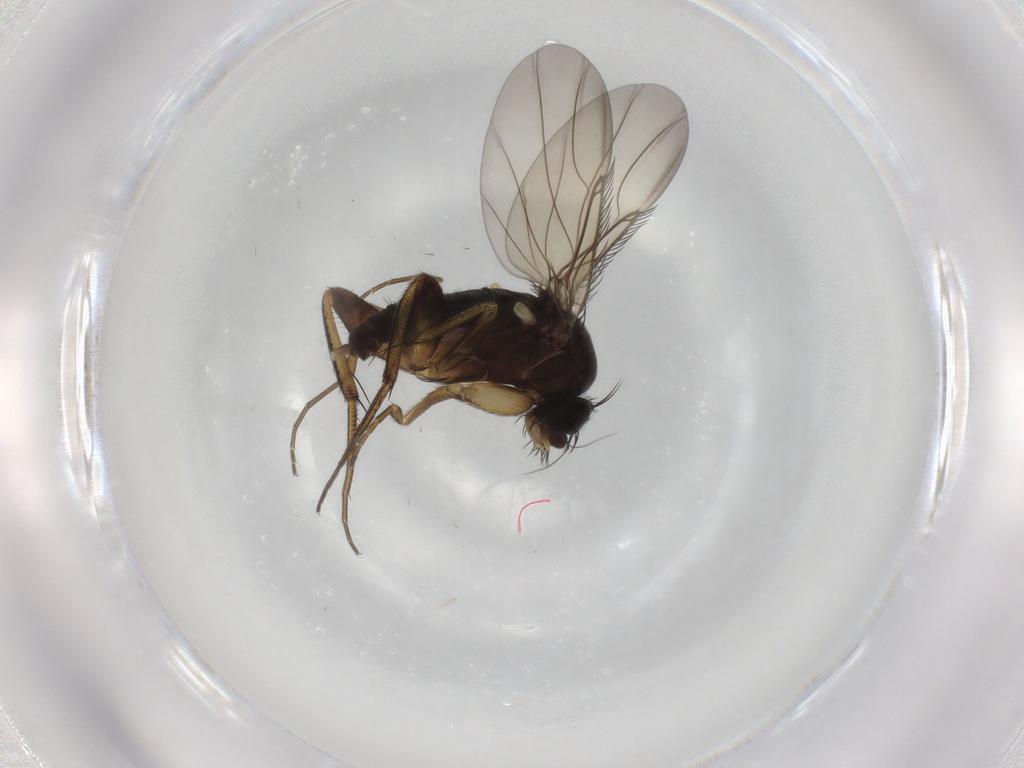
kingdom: Animalia
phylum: Arthropoda
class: Insecta
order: Diptera
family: Phoridae
